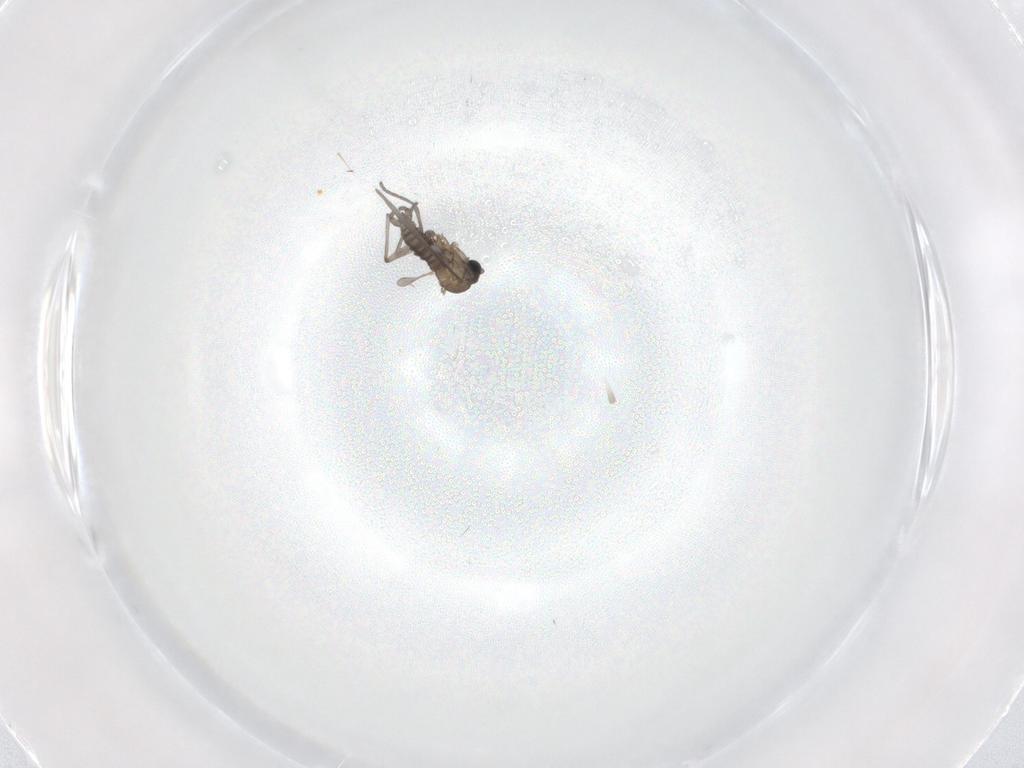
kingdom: Animalia
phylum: Arthropoda
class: Insecta
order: Diptera
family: Sciaridae
